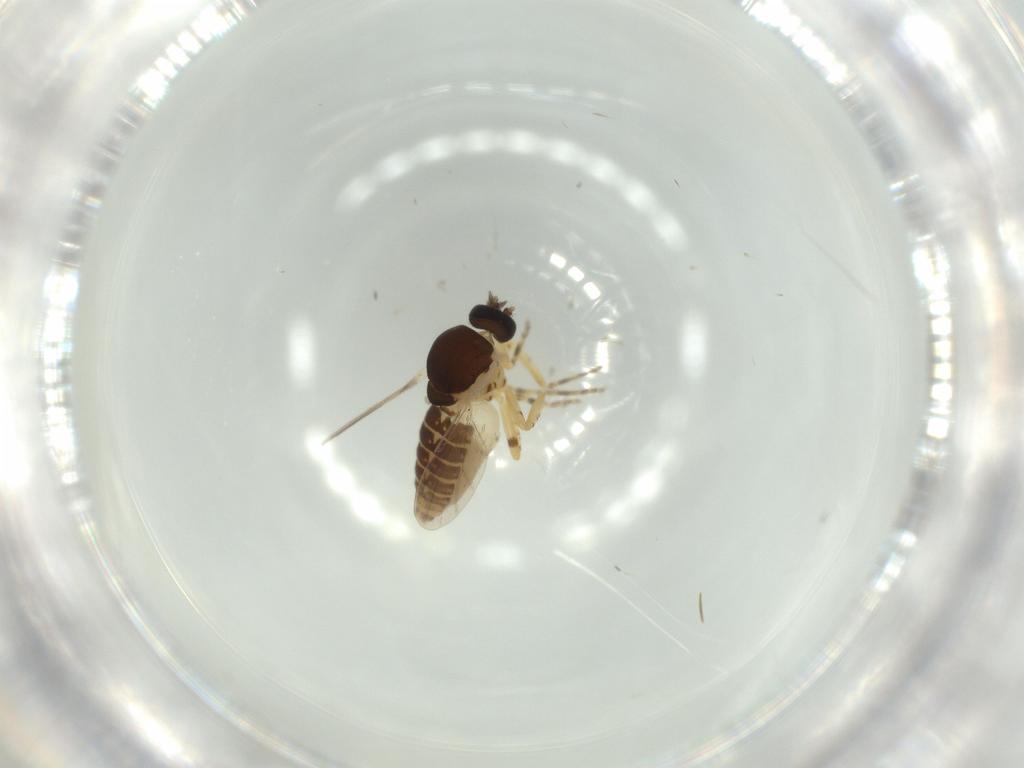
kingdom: Animalia
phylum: Arthropoda
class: Insecta
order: Diptera
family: Ceratopogonidae
